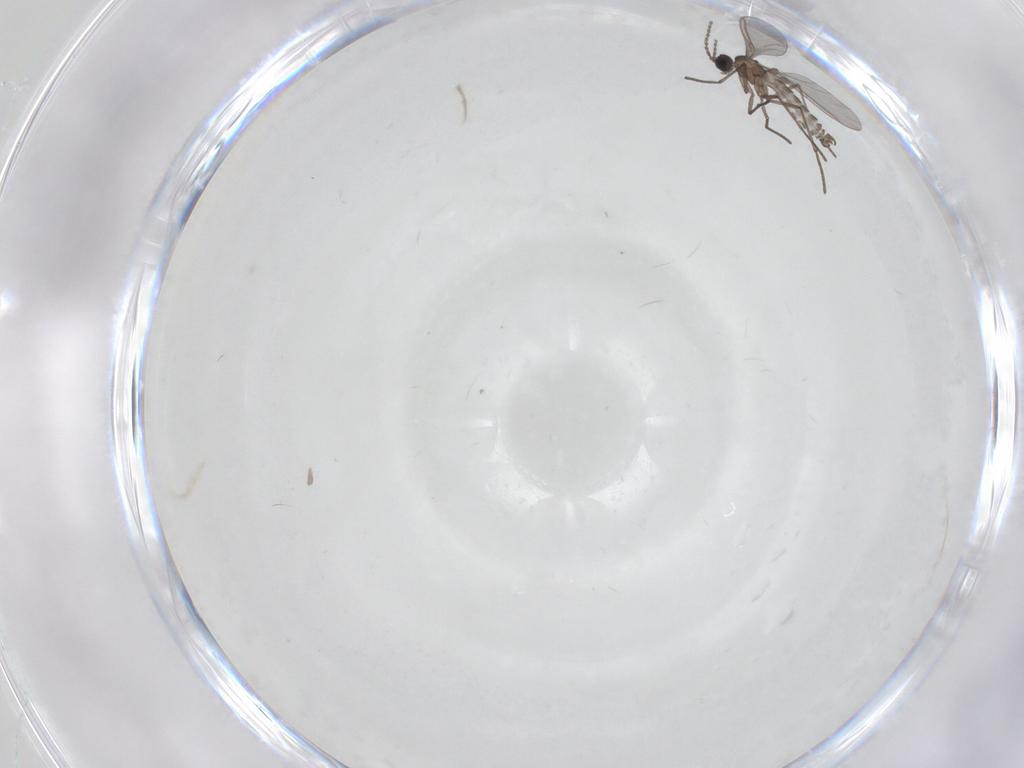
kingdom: Animalia
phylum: Arthropoda
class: Insecta
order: Diptera
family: Sciaridae
